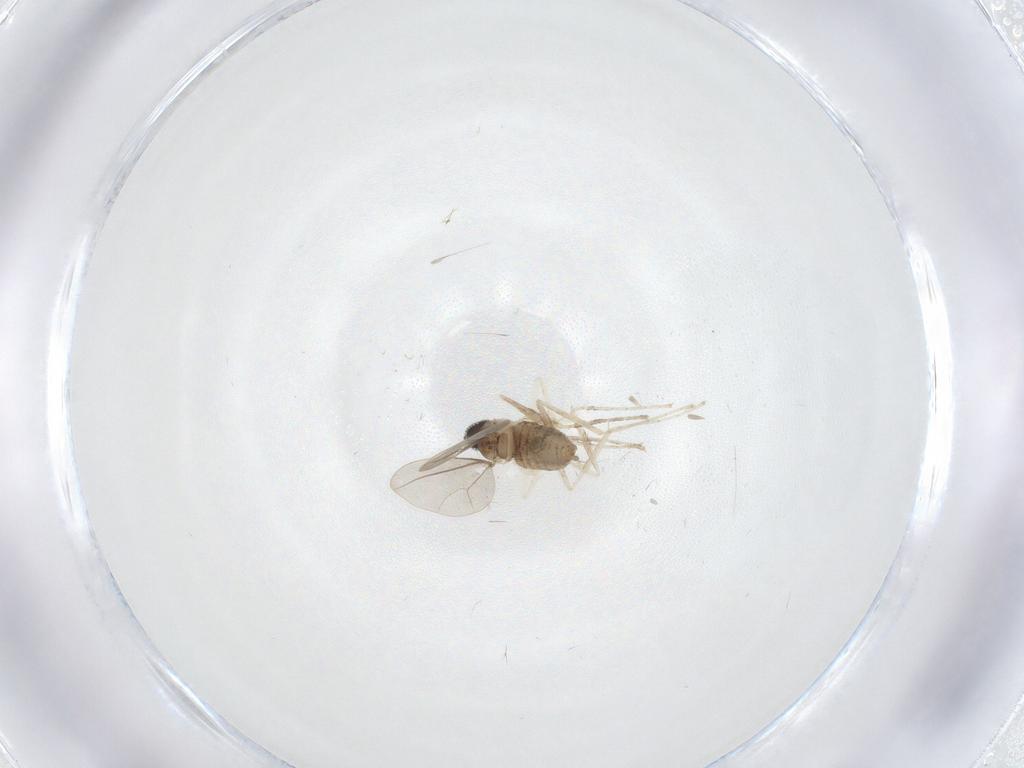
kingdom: Animalia
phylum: Arthropoda
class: Insecta
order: Diptera
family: Cecidomyiidae
